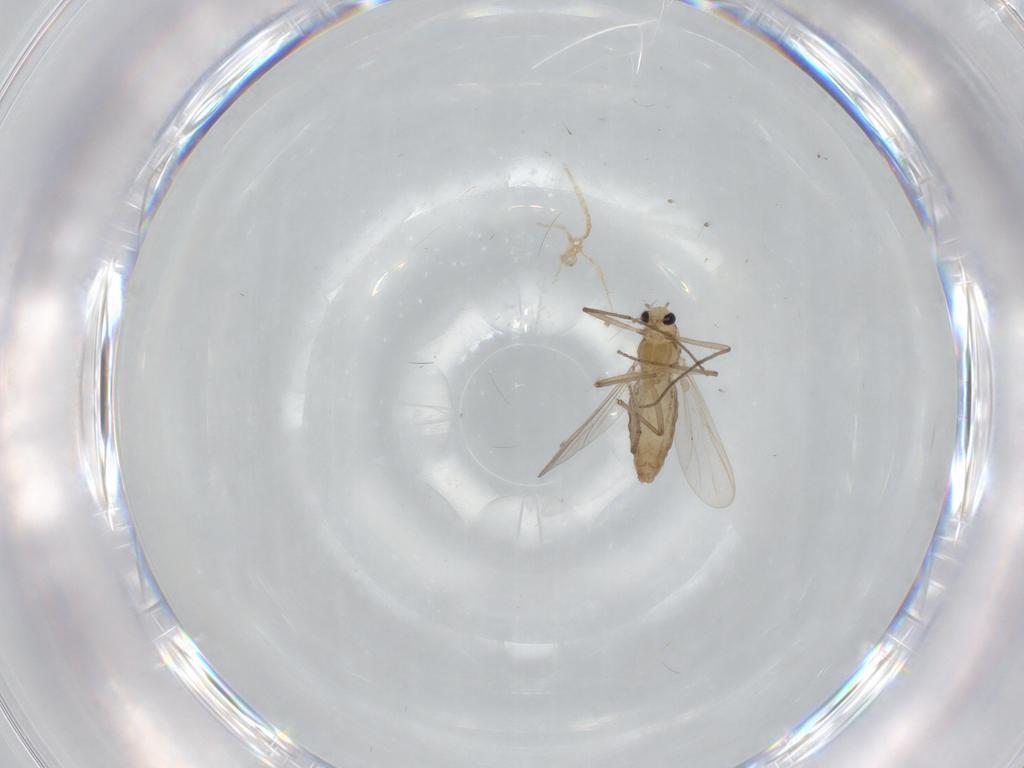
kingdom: Animalia
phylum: Arthropoda
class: Insecta
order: Diptera
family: Chironomidae
